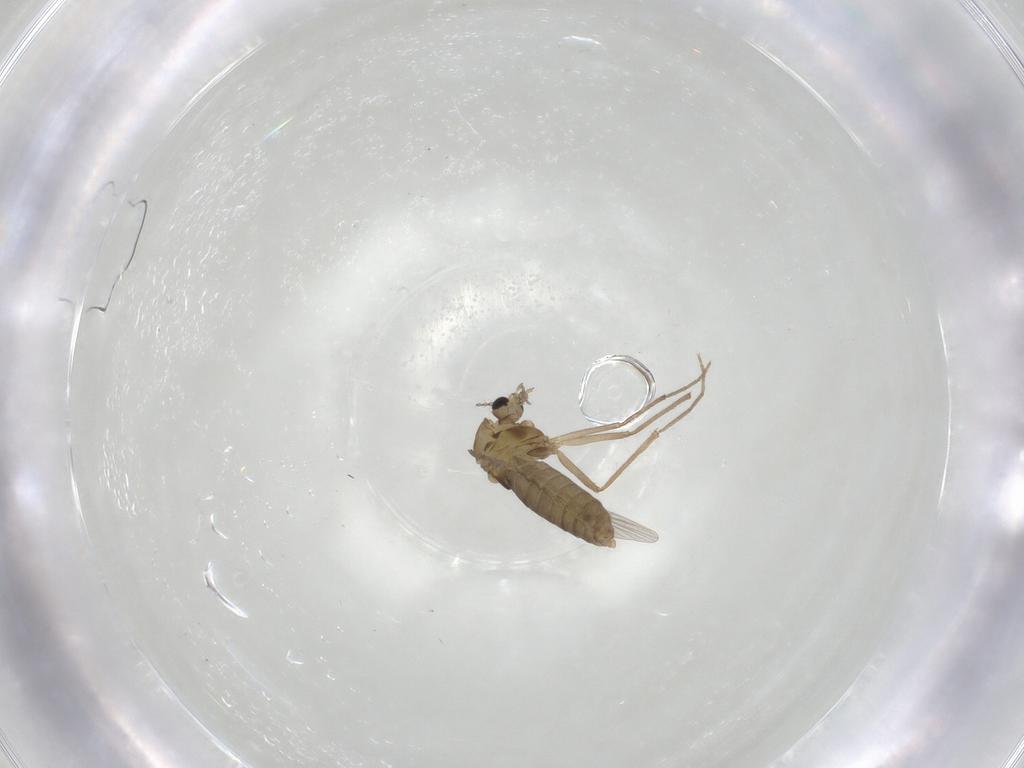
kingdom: Animalia
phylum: Arthropoda
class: Insecta
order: Diptera
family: Chironomidae
